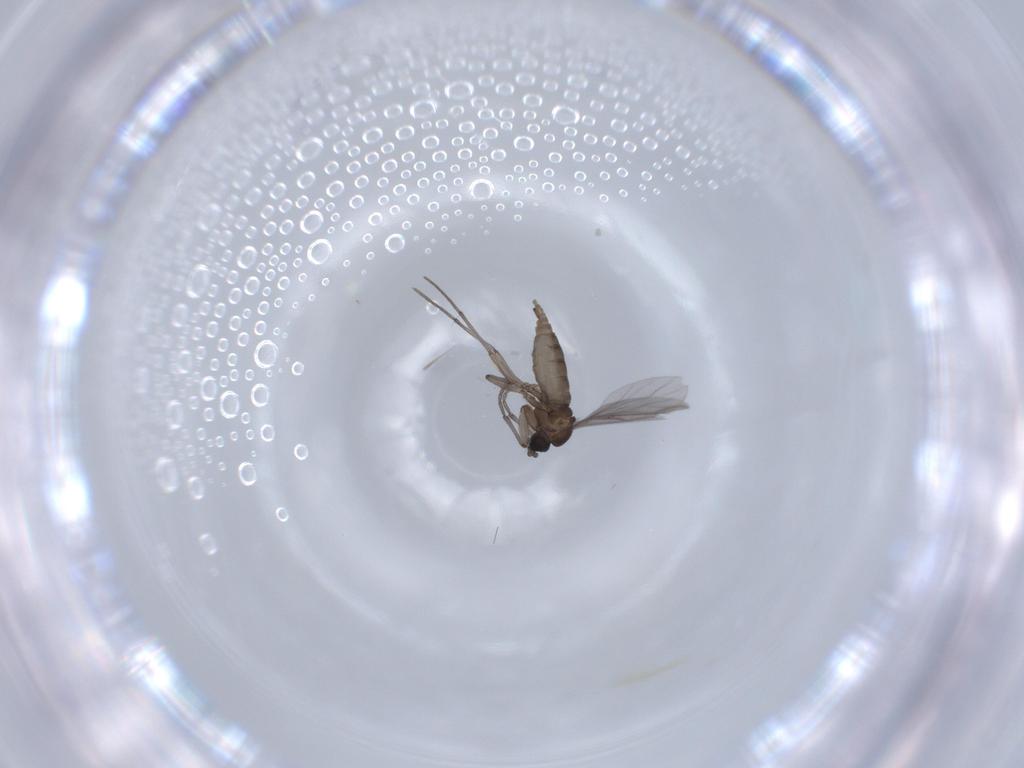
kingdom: Animalia
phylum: Arthropoda
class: Insecta
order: Diptera
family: Sciaridae
